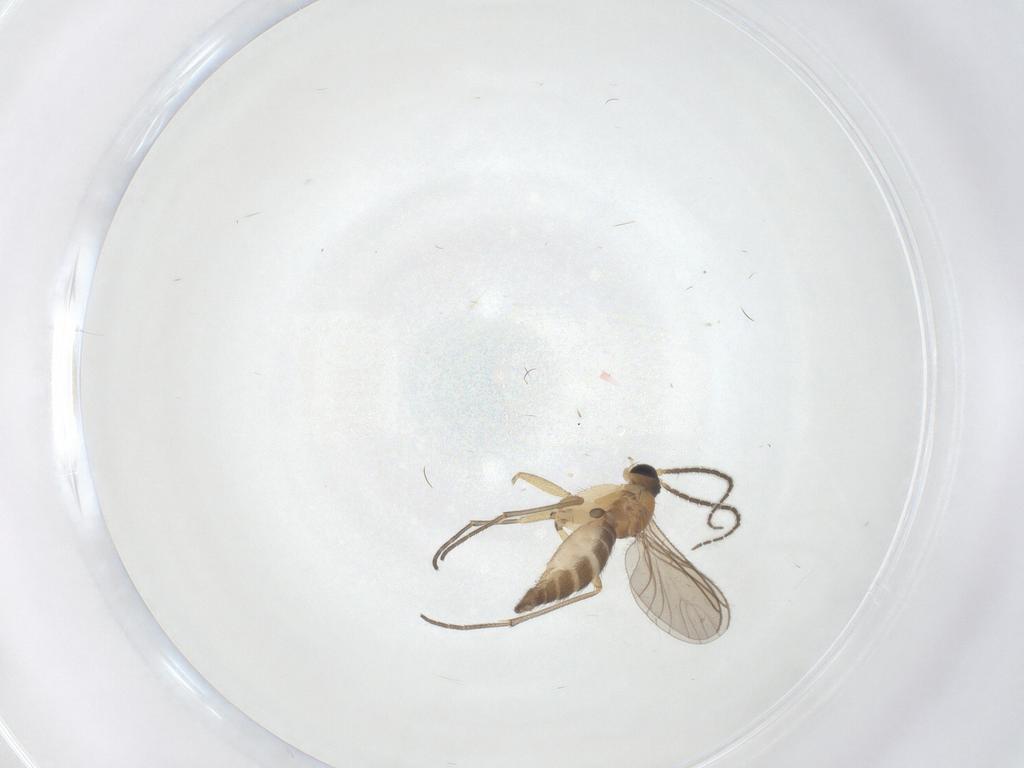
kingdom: Animalia
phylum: Arthropoda
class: Insecta
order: Diptera
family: Sciaridae
